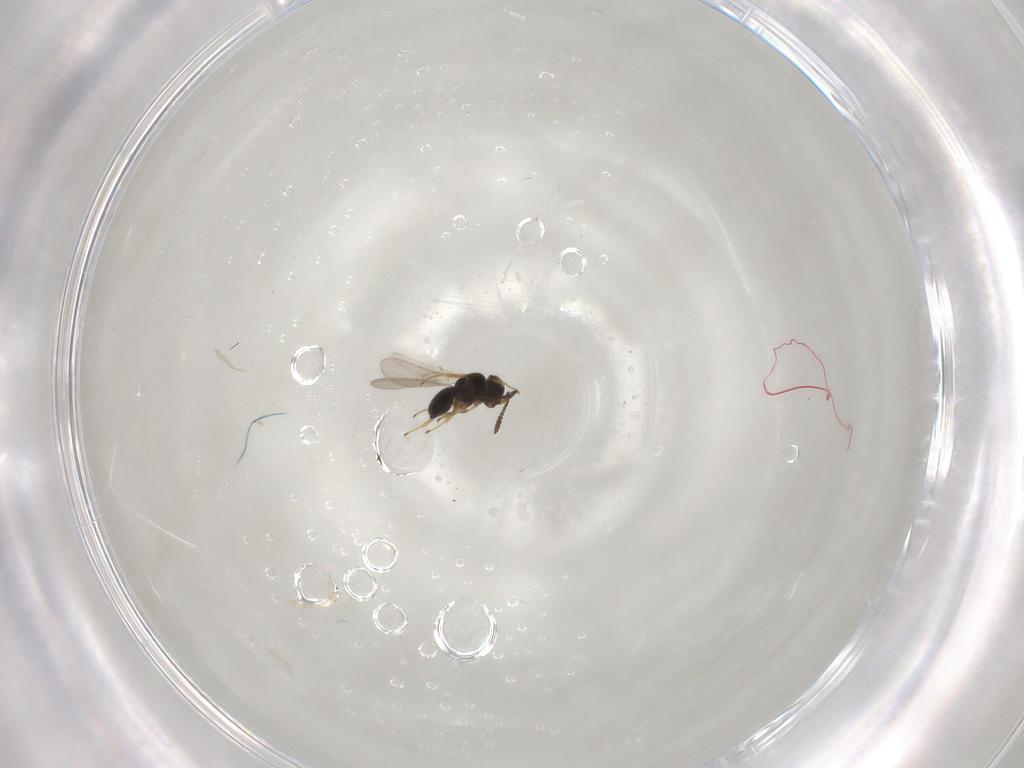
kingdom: Animalia
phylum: Arthropoda
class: Insecta
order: Hymenoptera
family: Scelionidae
